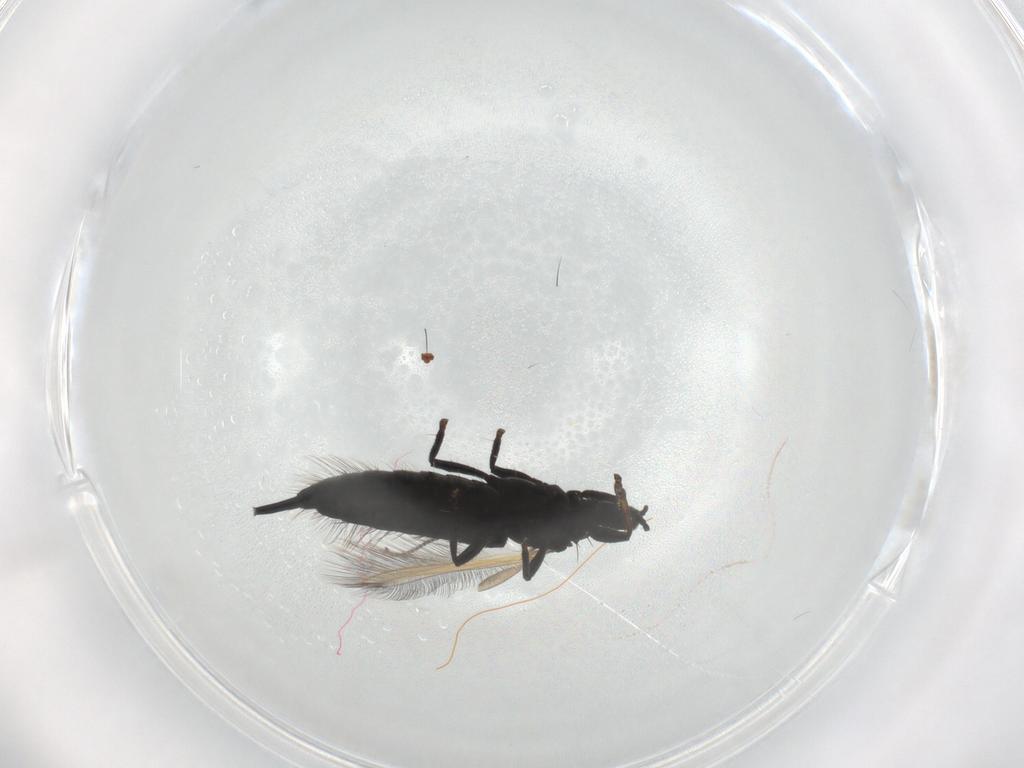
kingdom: Animalia
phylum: Arthropoda
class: Insecta
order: Thysanoptera
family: Phlaeothripidae
